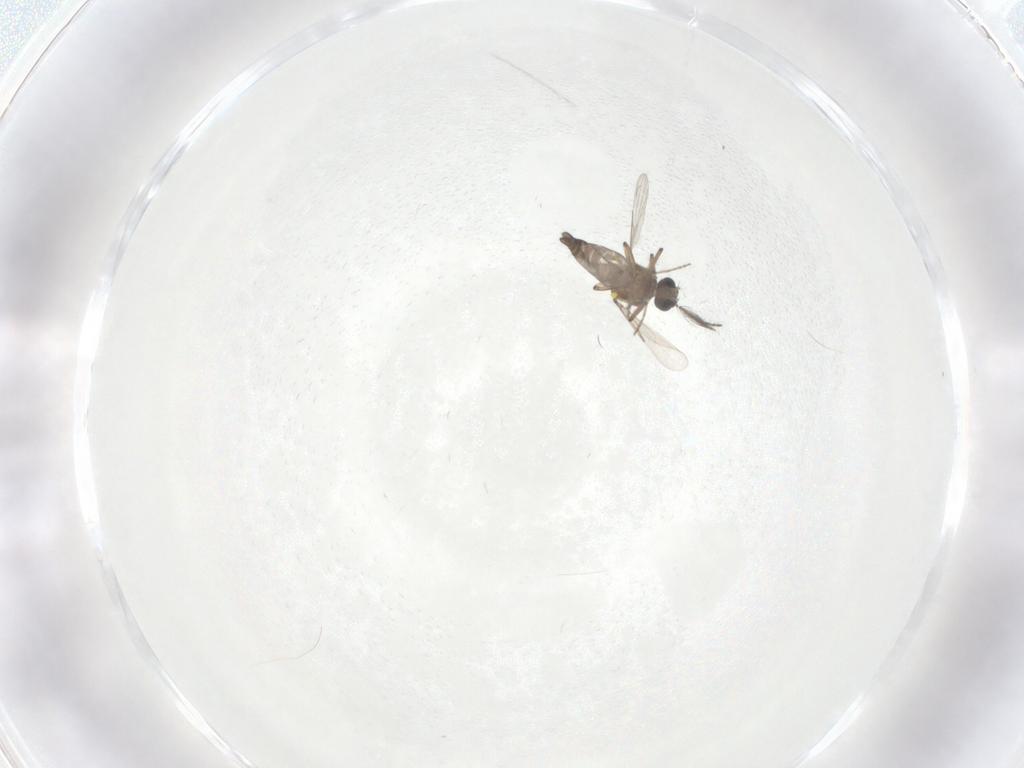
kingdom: Animalia
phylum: Arthropoda
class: Insecta
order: Diptera
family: Ceratopogonidae
